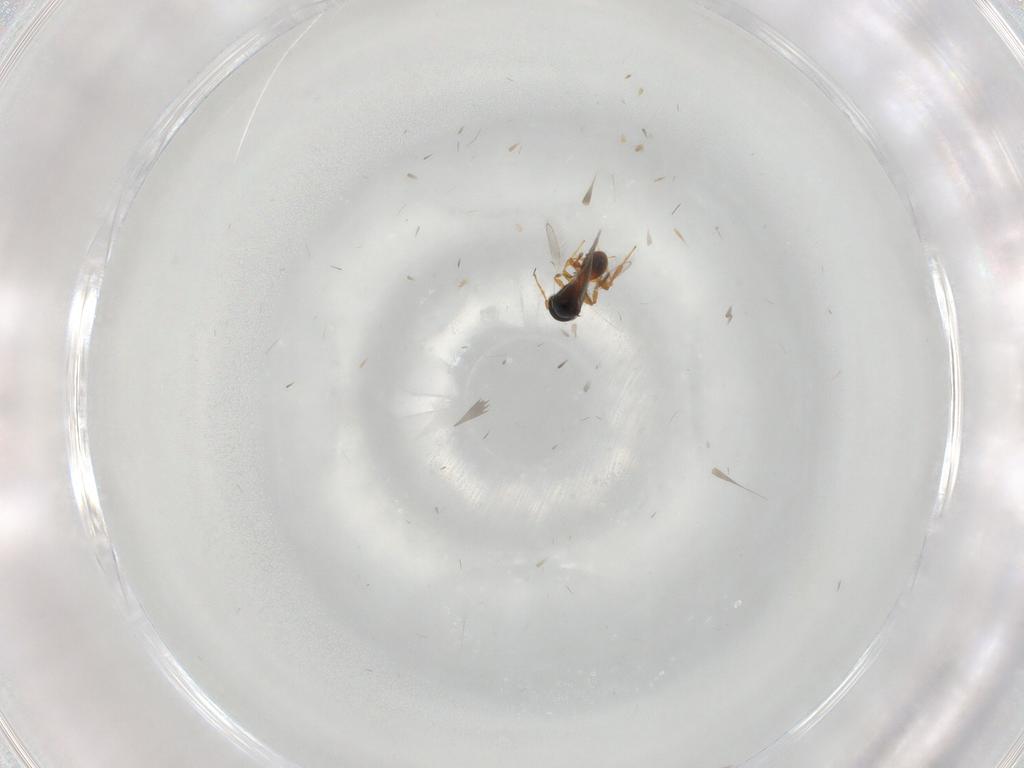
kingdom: Animalia
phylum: Arthropoda
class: Insecta
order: Hymenoptera
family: Platygastridae
